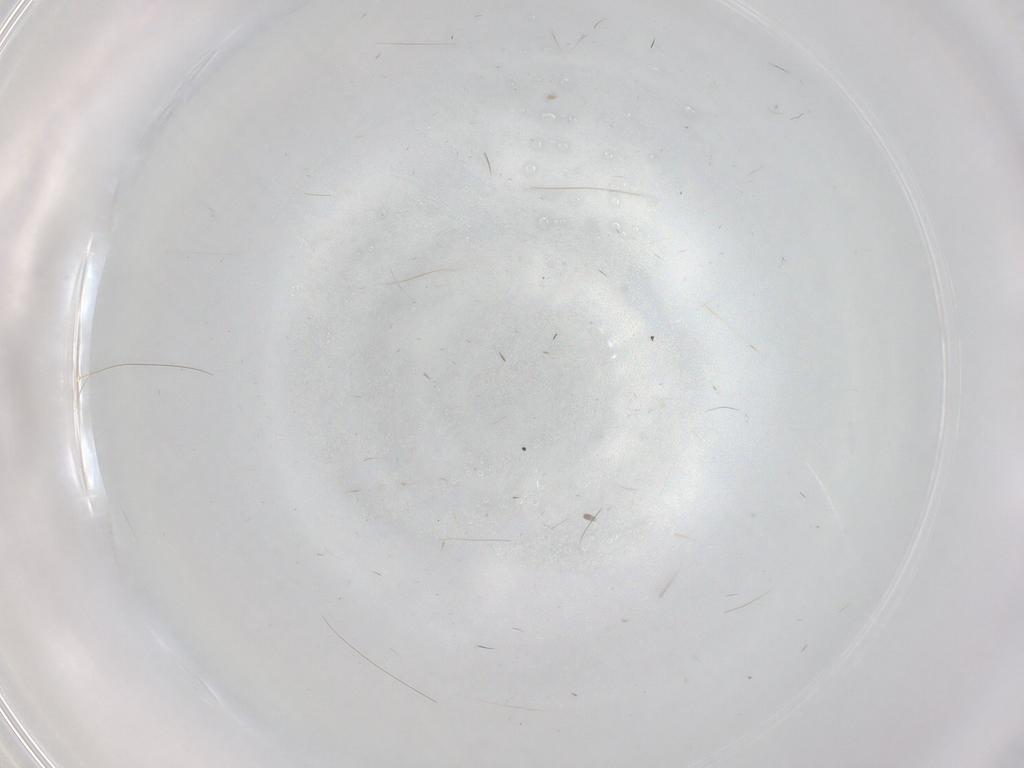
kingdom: Animalia
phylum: Arthropoda
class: Insecta
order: Hymenoptera
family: Ichneumonidae
